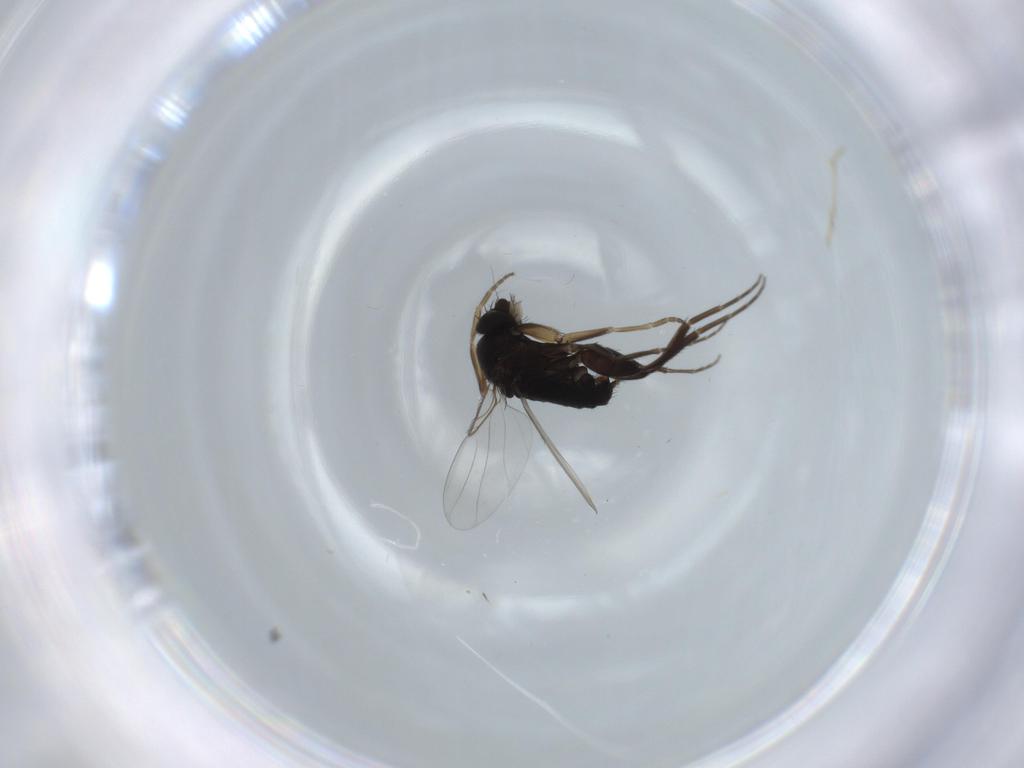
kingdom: Animalia
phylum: Arthropoda
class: Insecta
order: Diptera
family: Phoridae
